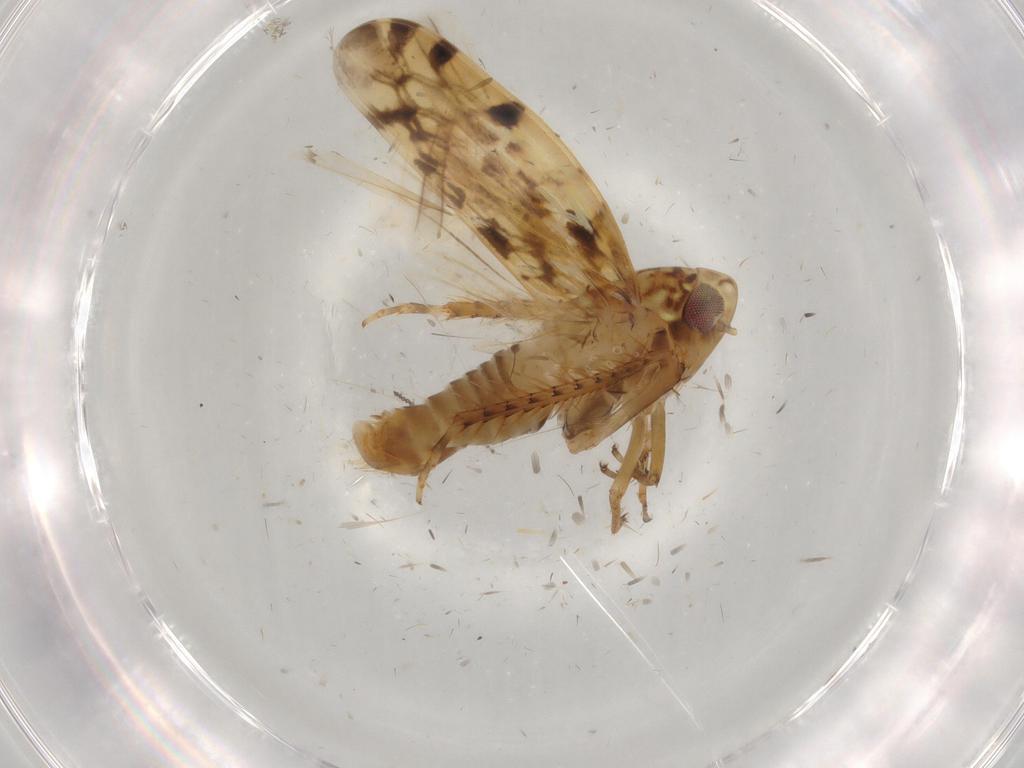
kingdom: Animalia
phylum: Arthropoda
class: Insecta
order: Hemiptera
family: Cicadellidae
